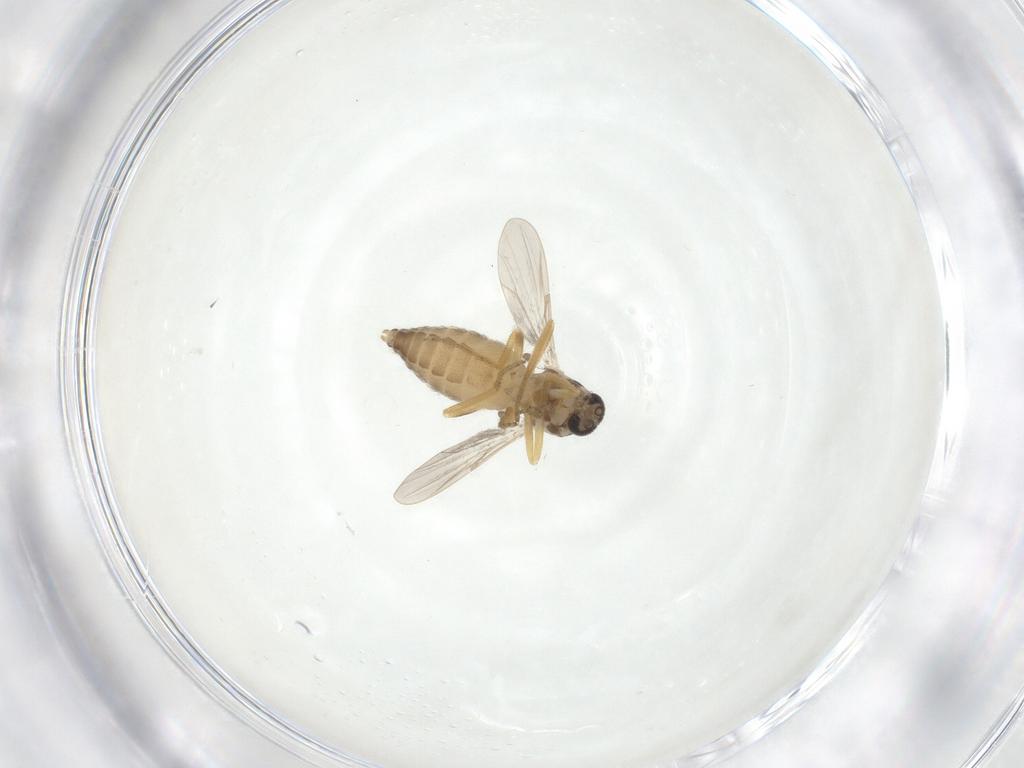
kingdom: Animalia
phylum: Arthropoda
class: Insecta
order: Diptera
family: Ceratopogonidae
